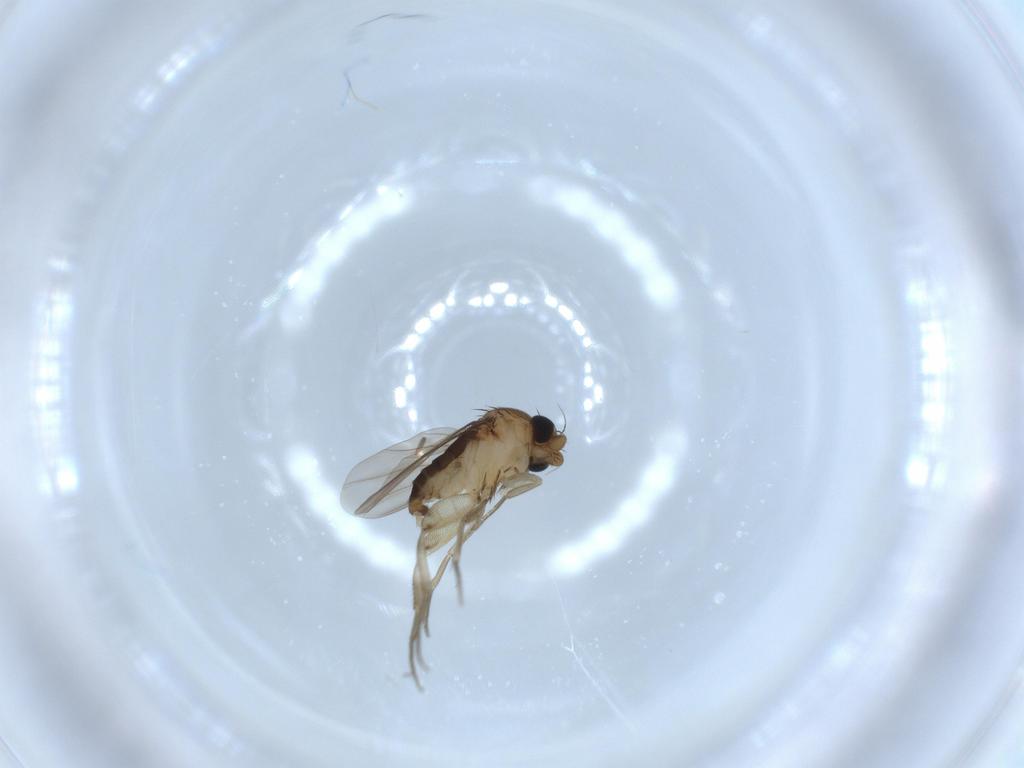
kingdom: Animalia
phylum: Arthropoda
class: Insecta
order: Diptera
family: Phoridae
